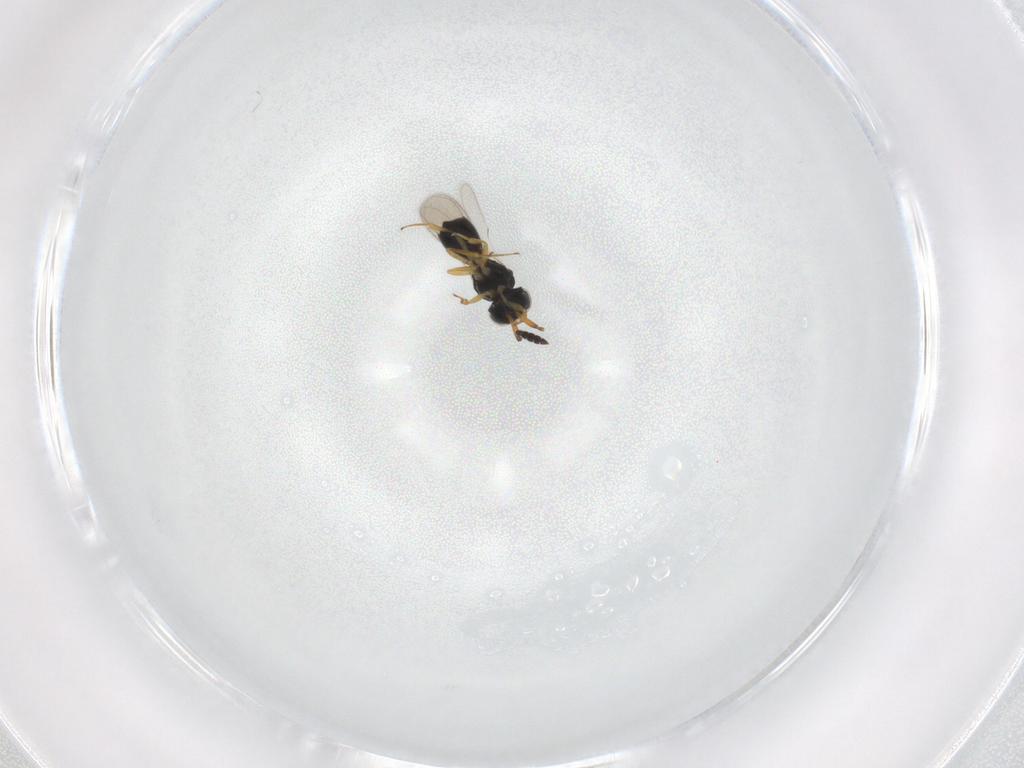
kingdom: Animalia
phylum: Arthropoda
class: Insecta
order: Hymenoptera
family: Scelionidae
